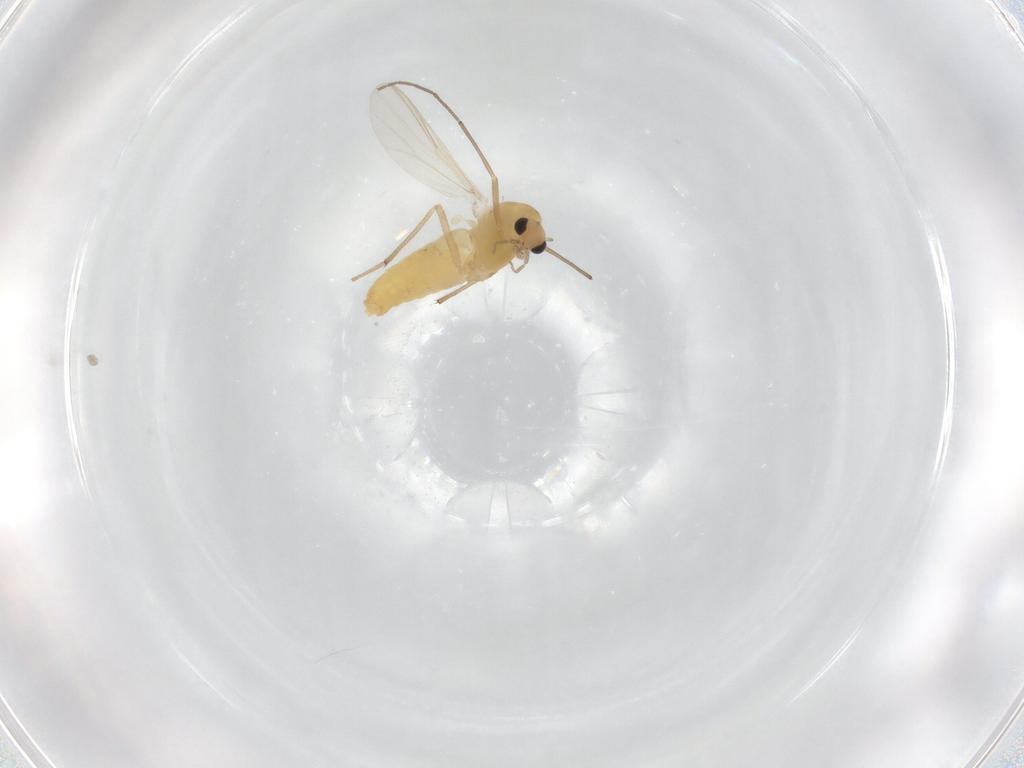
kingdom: Animalia
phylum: Arthropoda
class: Insecta
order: Diptera
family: Chironomidae
